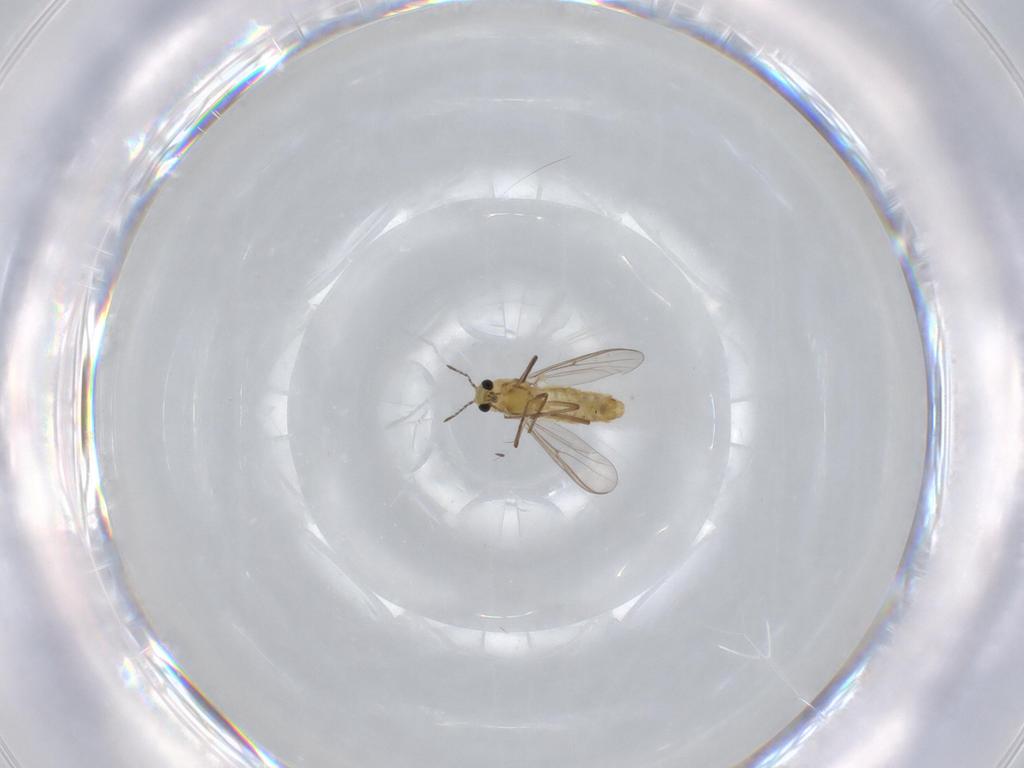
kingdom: Animalia
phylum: Arthropoda
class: Insecta
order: Diptera
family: Chironomidae
